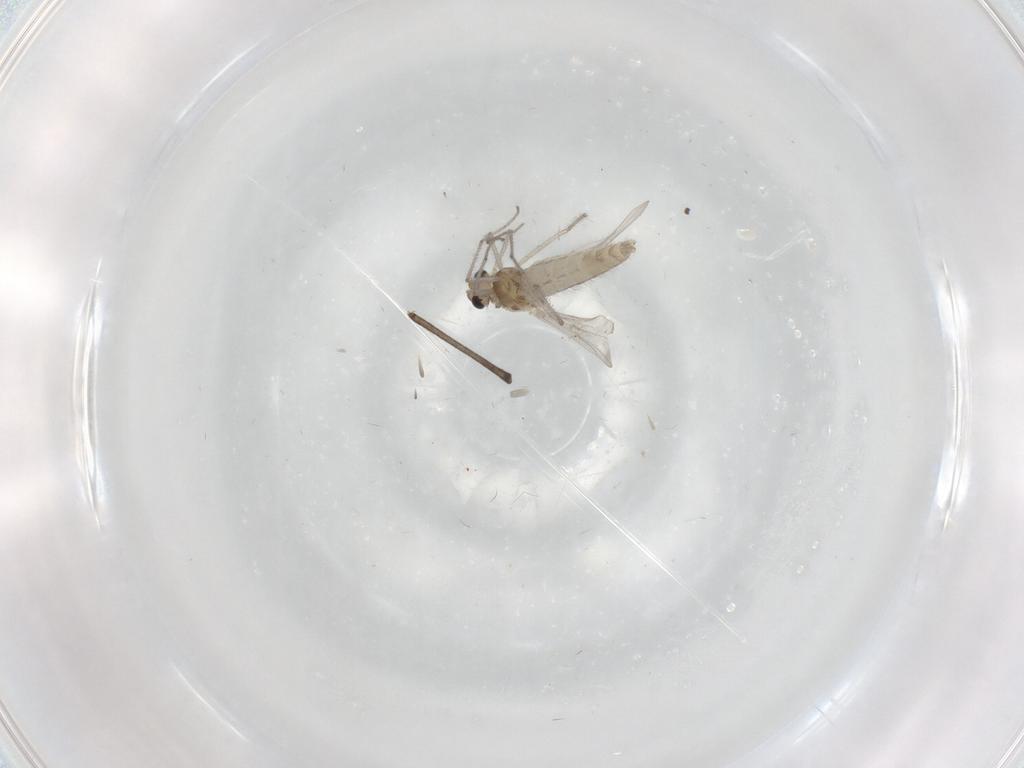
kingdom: Animalia
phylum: Arthropoda
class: Insecta
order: Diptera
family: Sciaridae
